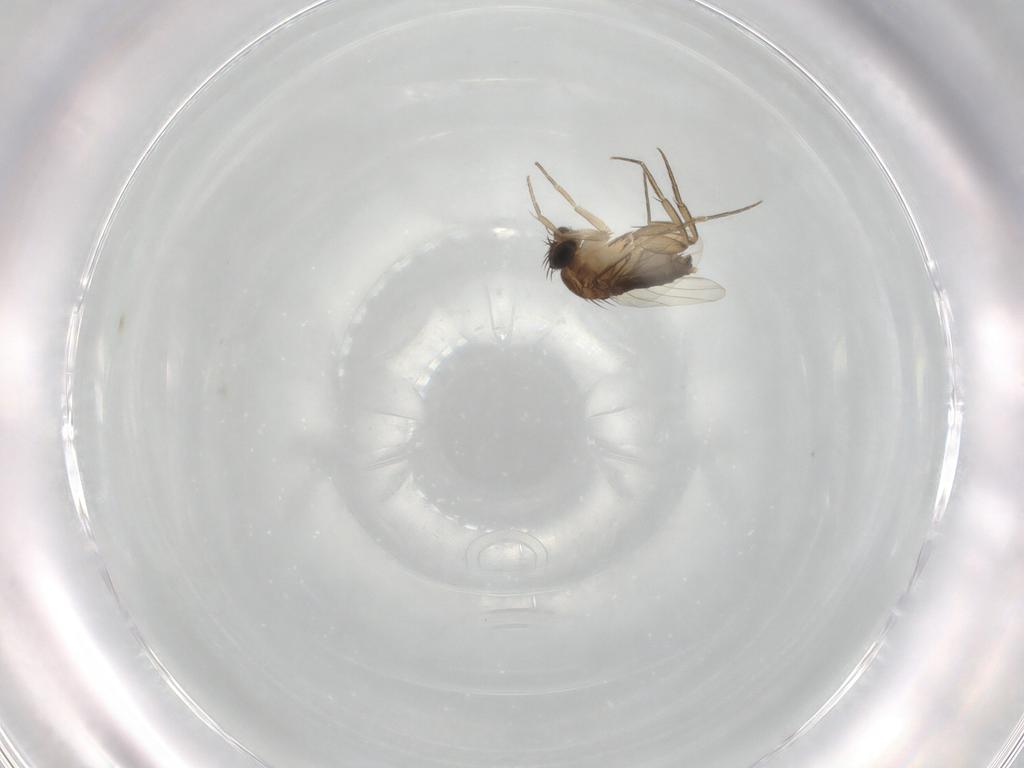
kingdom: Animalia
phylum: Arthropoda
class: Insecta
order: Diptera
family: Phoridae
